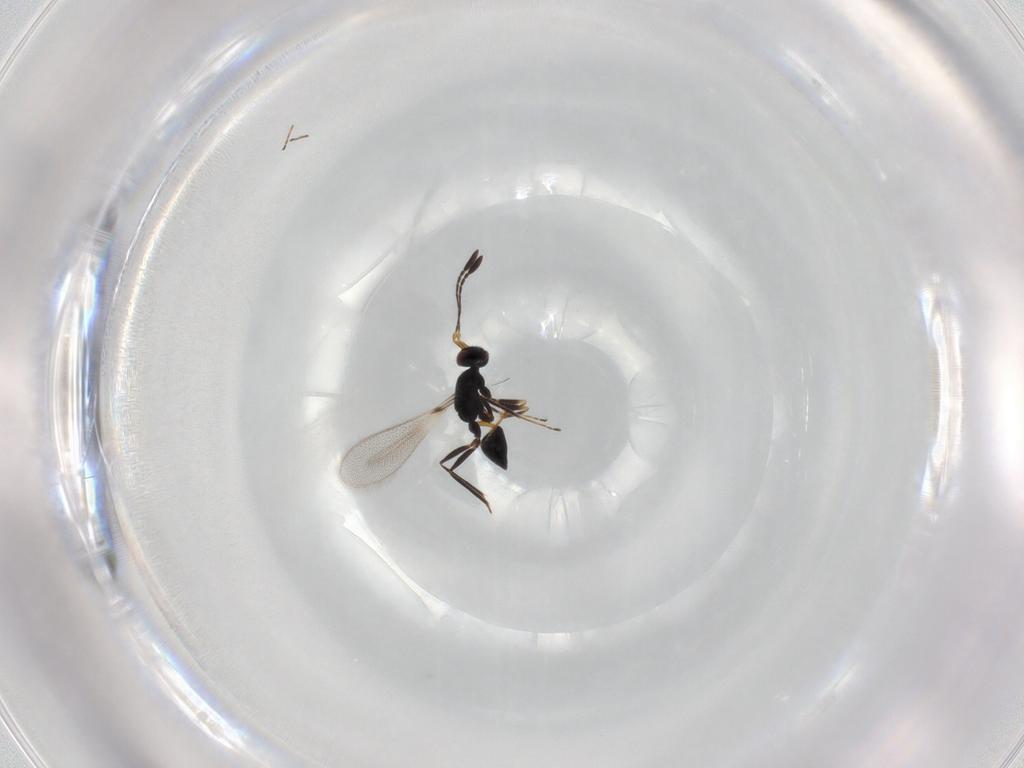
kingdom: Animalia
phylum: Arthropoda
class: Insecta
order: Hymenoptera
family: Mymaridae
